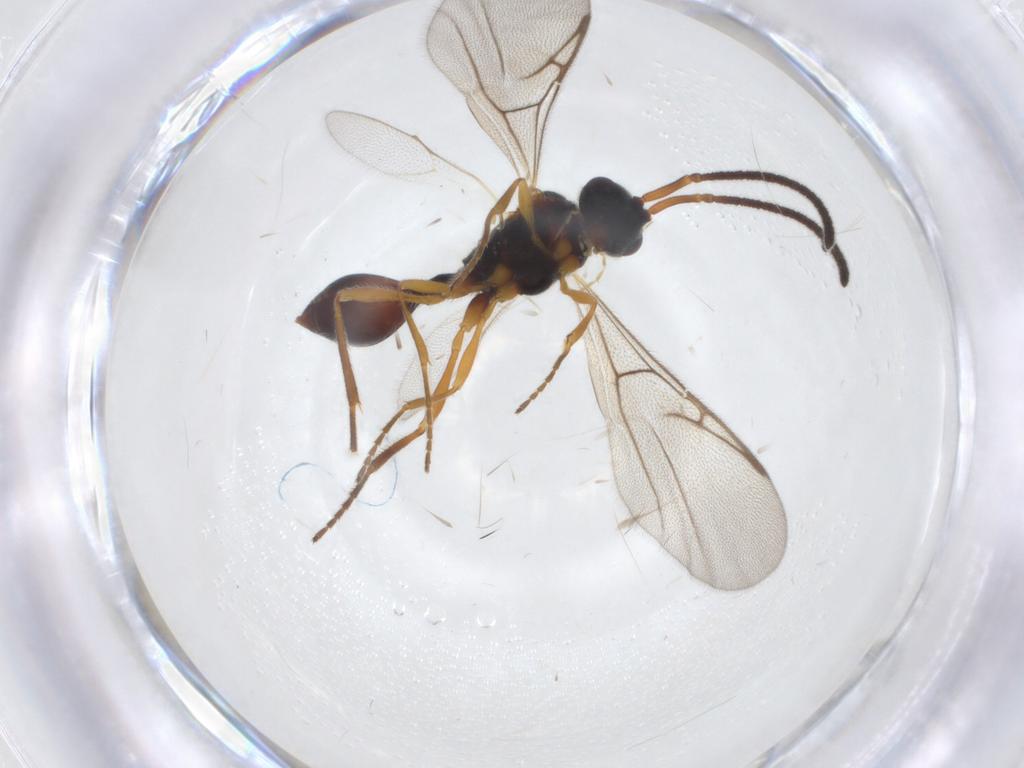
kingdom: Animalia
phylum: Arthropoda
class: Insecta
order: Hymenoptera
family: Diapriidae
